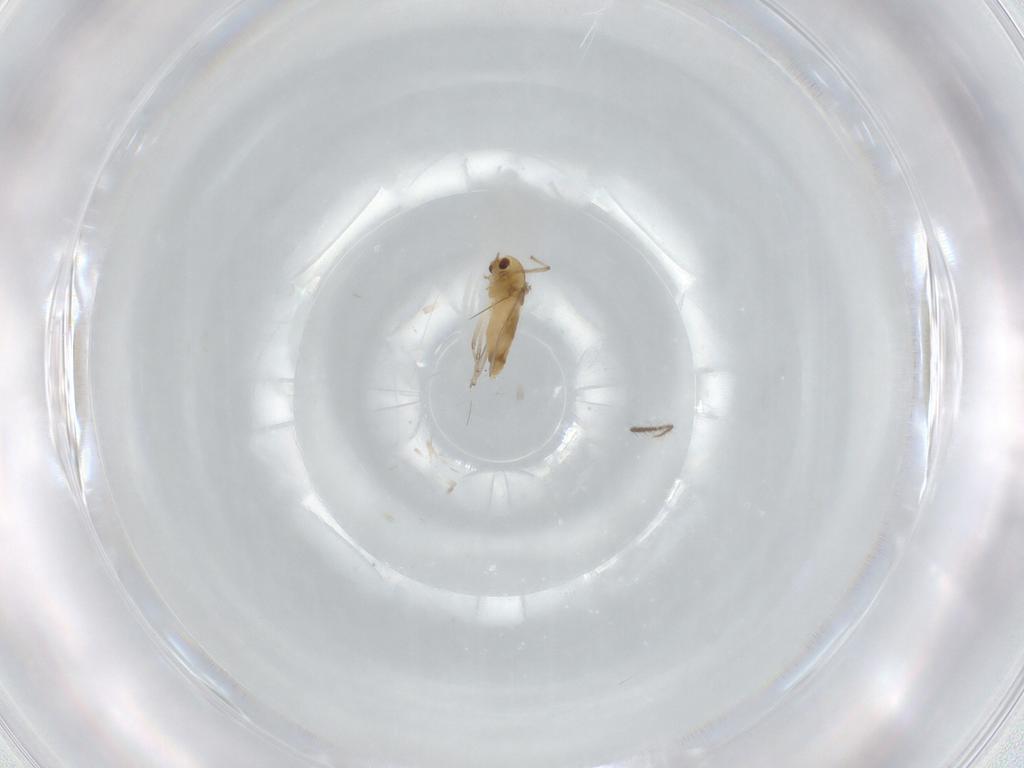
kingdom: Animalia
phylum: Arthropoda
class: Insecta
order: Diptera
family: Chironomidae
